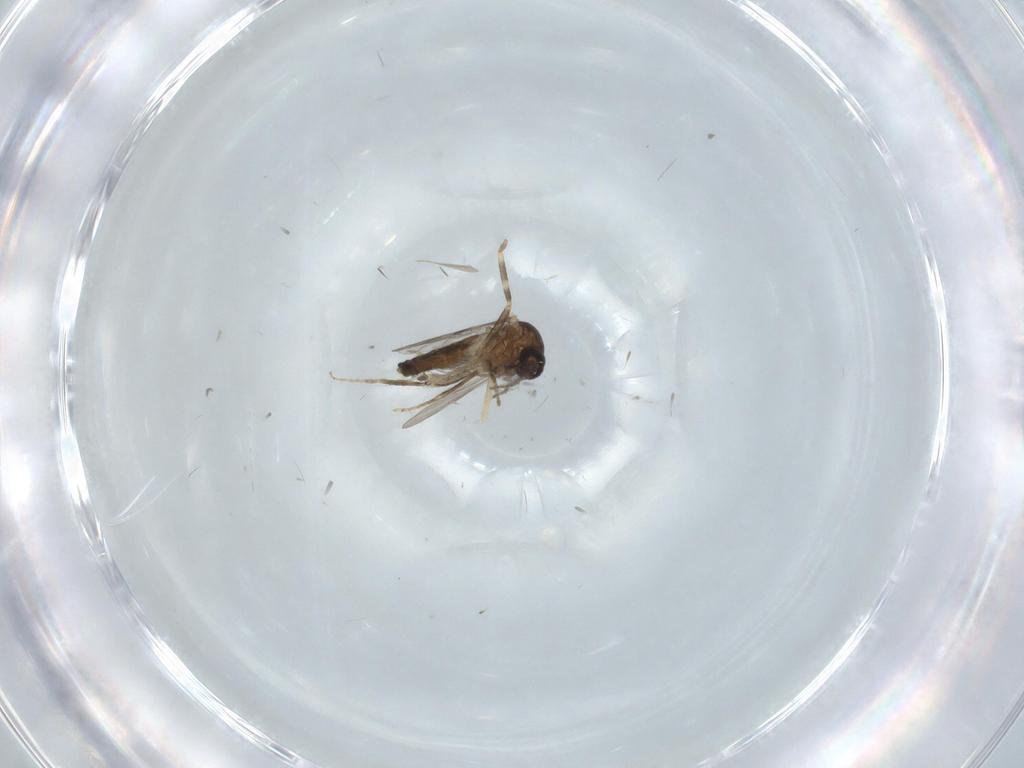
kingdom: Animalia
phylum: Arthropoda
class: Insecta
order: Diptera
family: Ceratopogonidae
